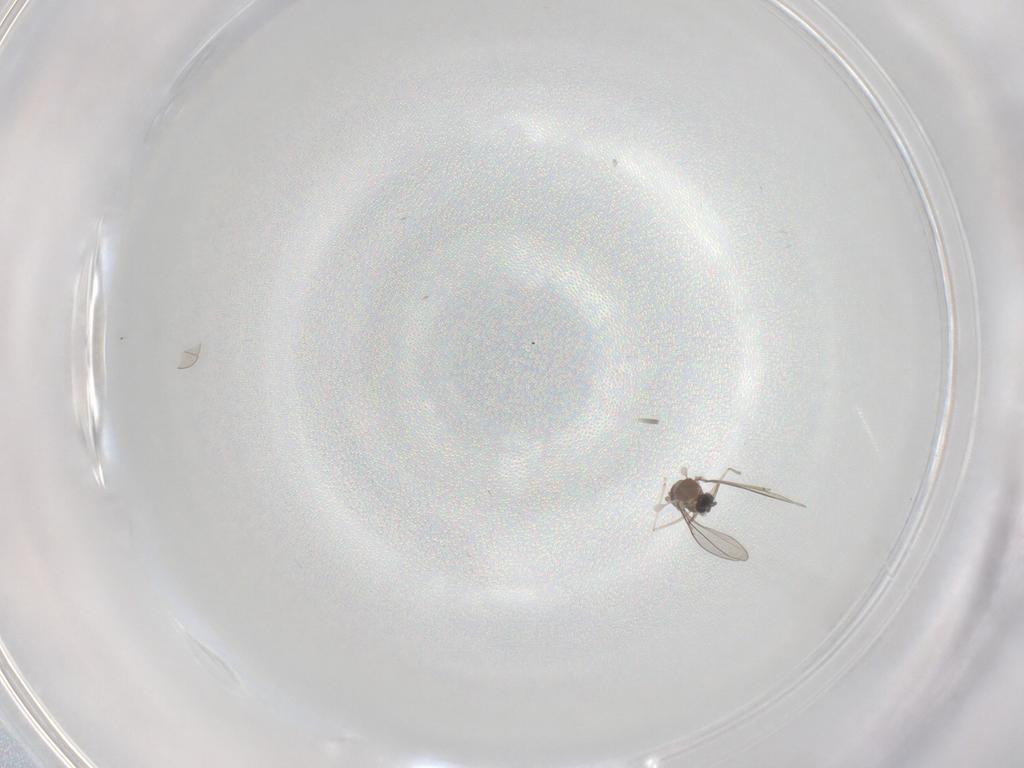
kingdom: Animalia
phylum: Arthropoda
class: Insecta
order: Diptera
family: Cecidomyiidae
